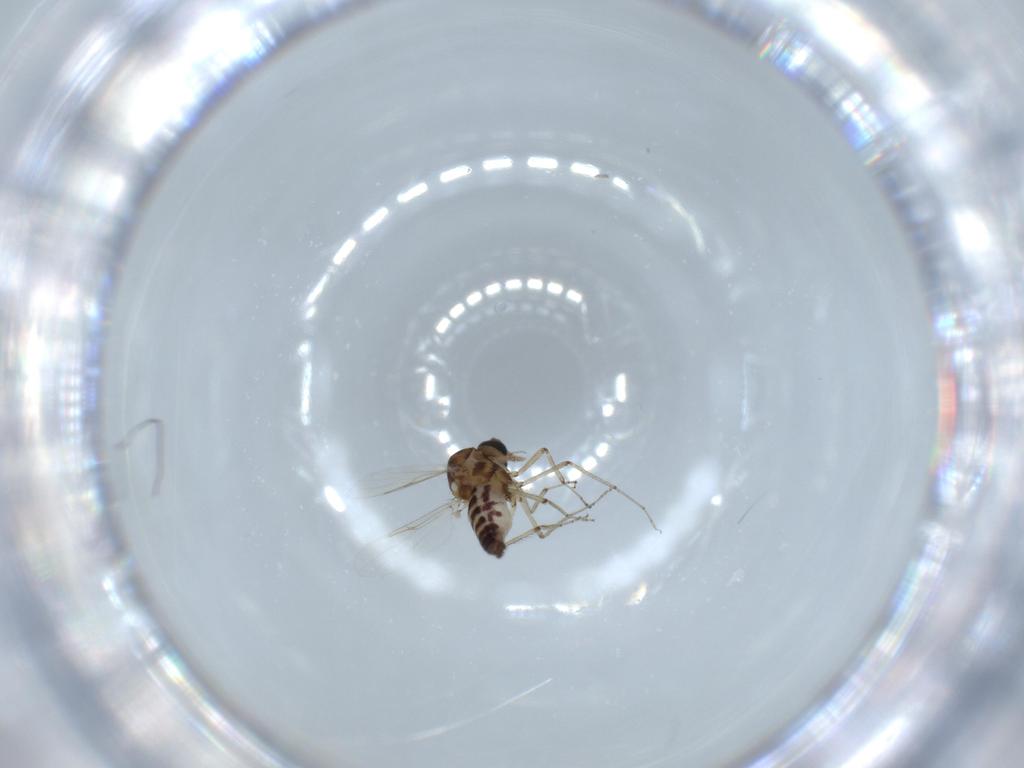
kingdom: Animalia
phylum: Arthropoda
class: Insecta
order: Diptera
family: Ceratopogonidae
